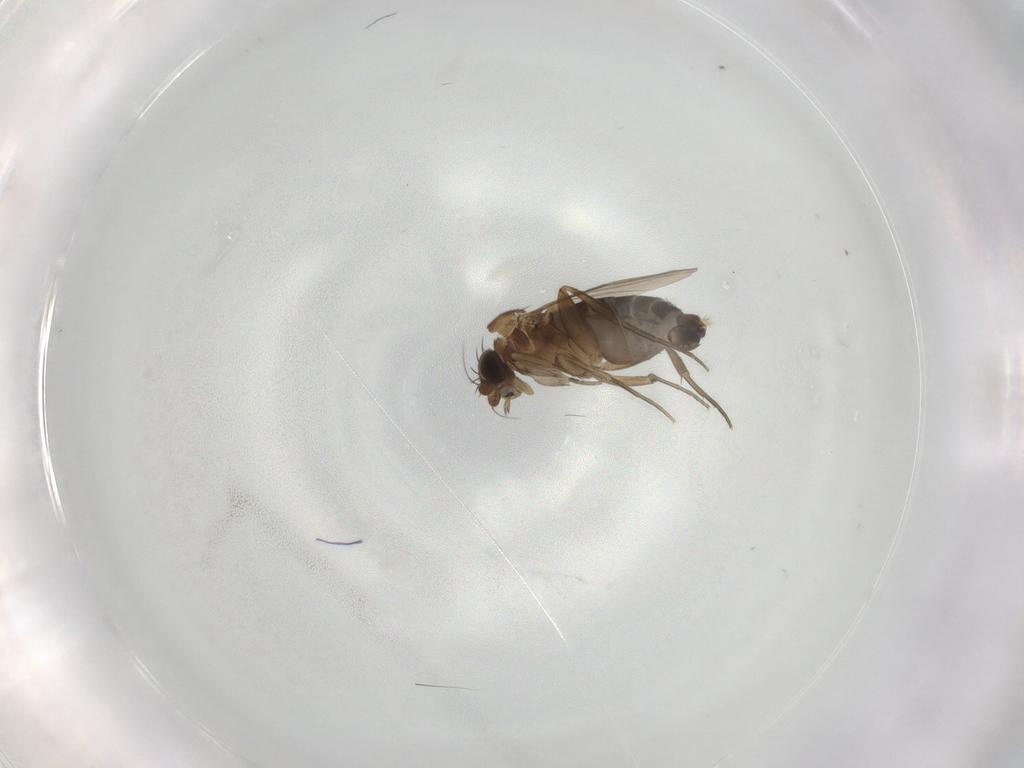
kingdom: Animalia
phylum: Arthropoda
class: Insecta
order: Diptera
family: Phoridae
